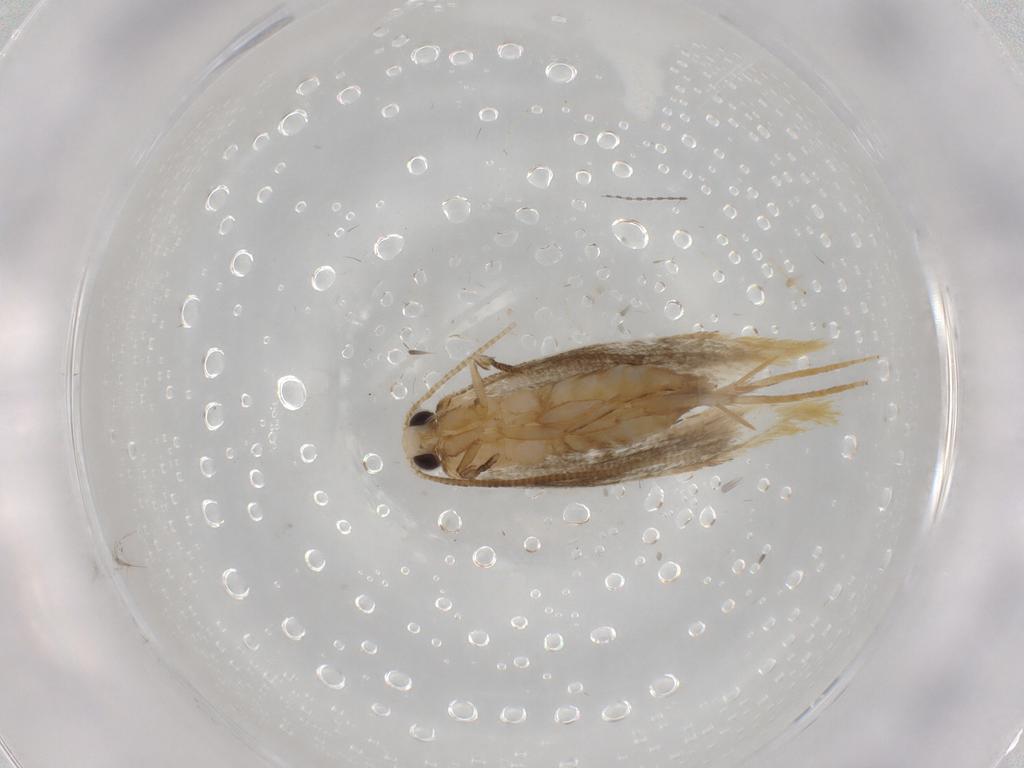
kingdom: Animalia
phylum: Arthropoda
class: Insecta
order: Lepidoptera
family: Tineidae
